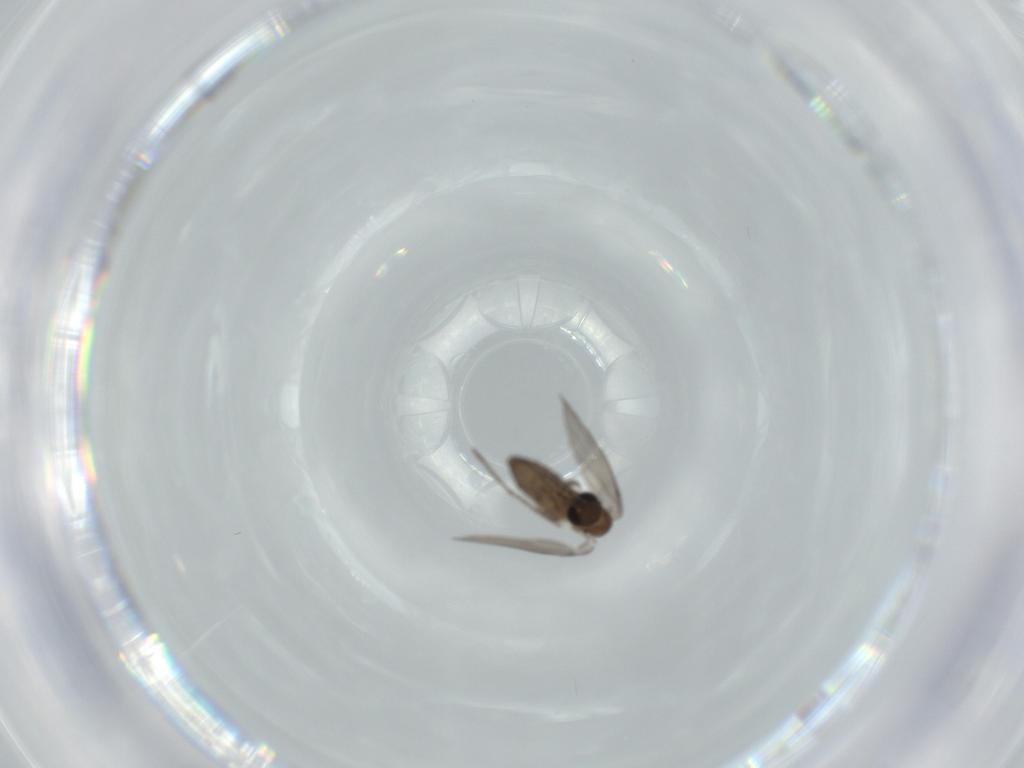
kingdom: Animalia
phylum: Arthropoda
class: Insecta
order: Diptera
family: Psychodidae
